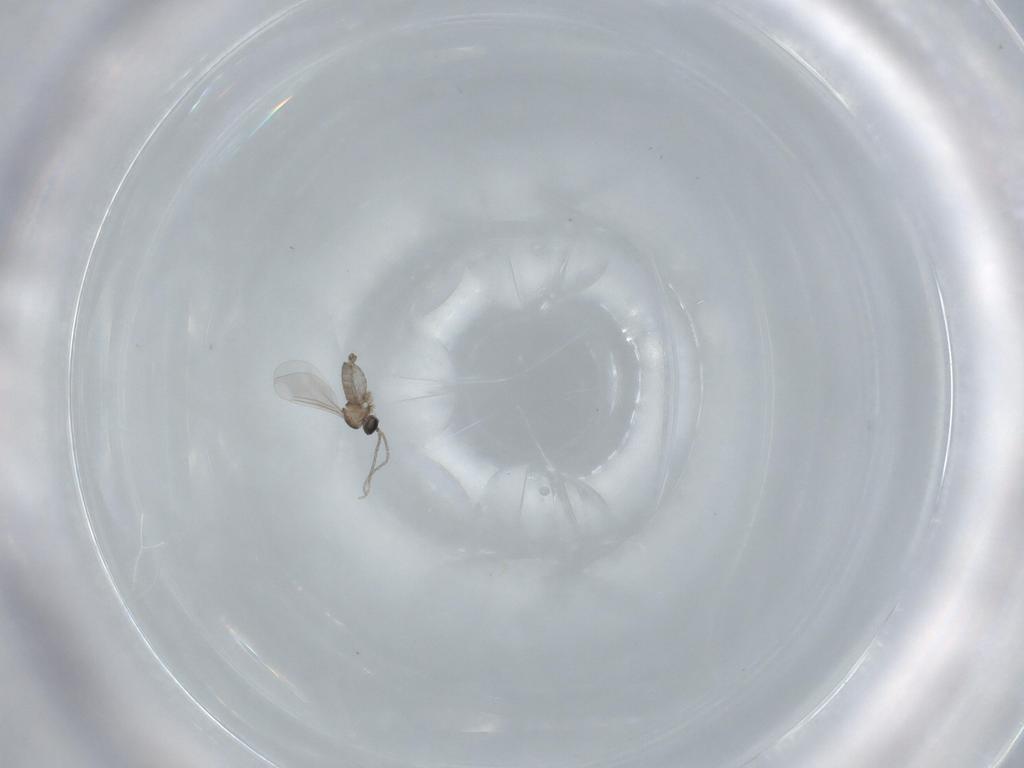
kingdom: Animalia
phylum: Arthropoda
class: Insecta
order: Diptera
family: Cecidomyiidae
